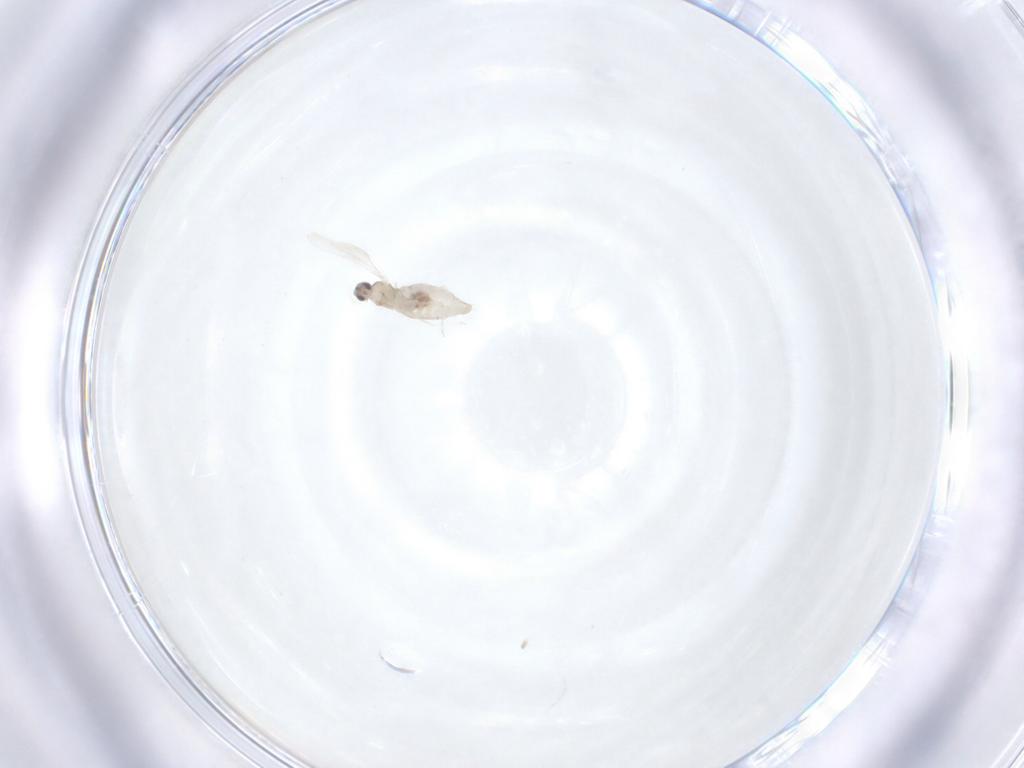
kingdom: Animalia
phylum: Arthropoda
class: Insecta
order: Diptera
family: Cecidomyiidae
